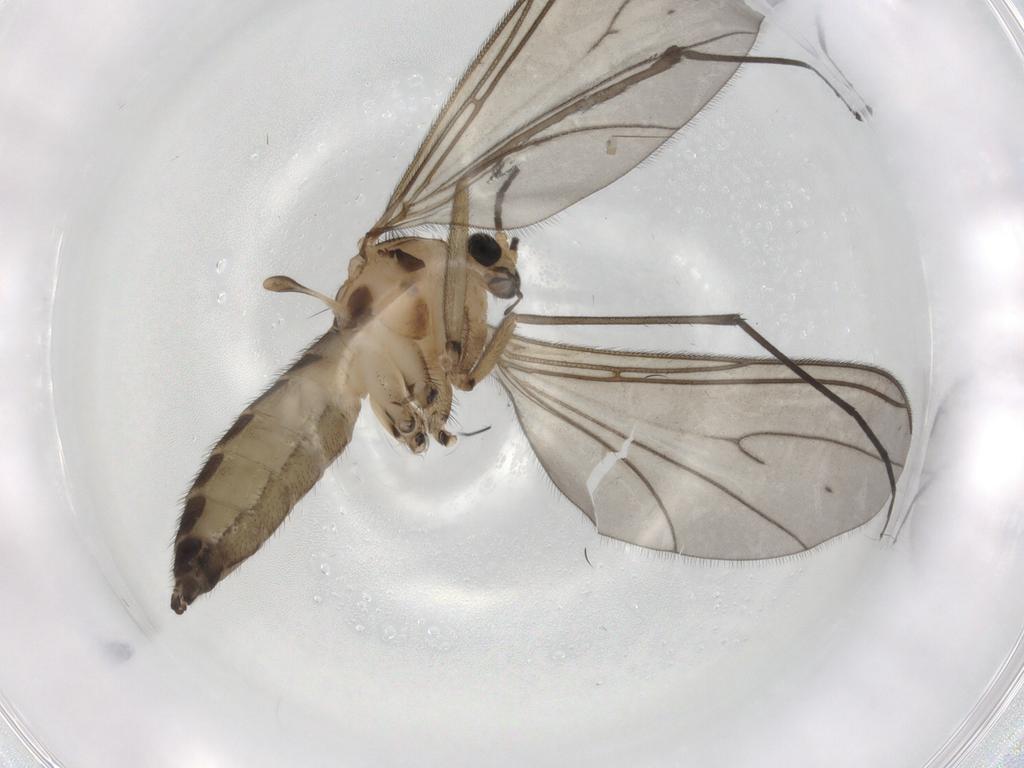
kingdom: Animalia
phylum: Arthropoda
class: Insecta
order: Diptera
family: Sciaridae
